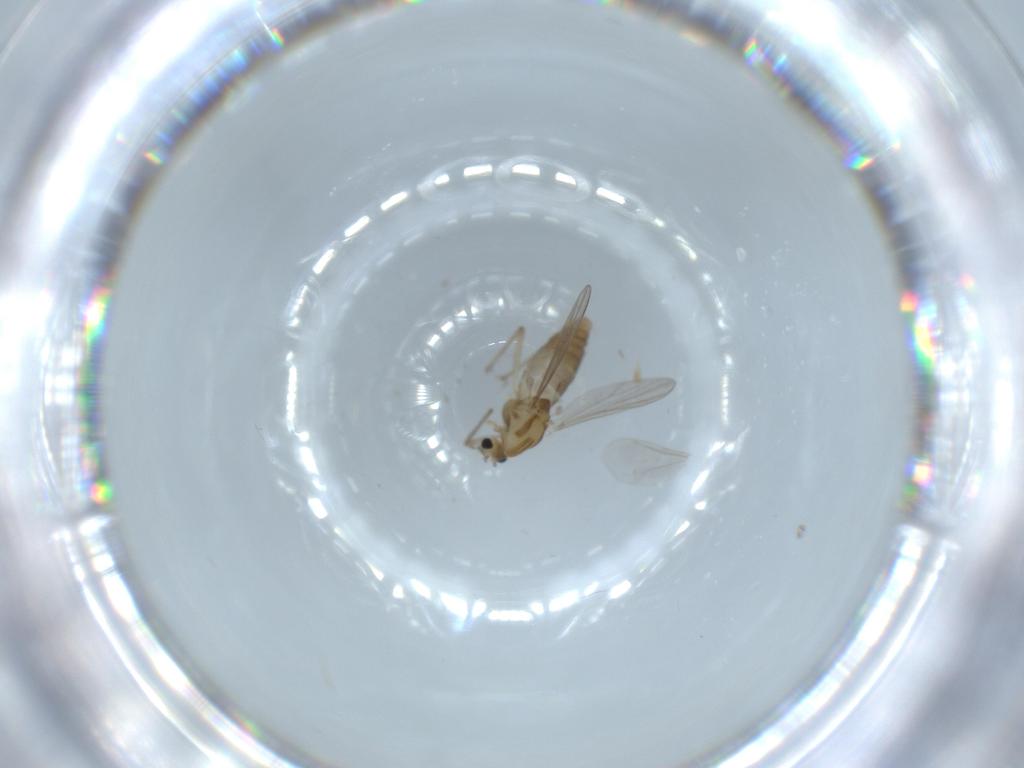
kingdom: Animalia
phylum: Arthropoda
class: Insecta
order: Diptera
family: Chironomidae
